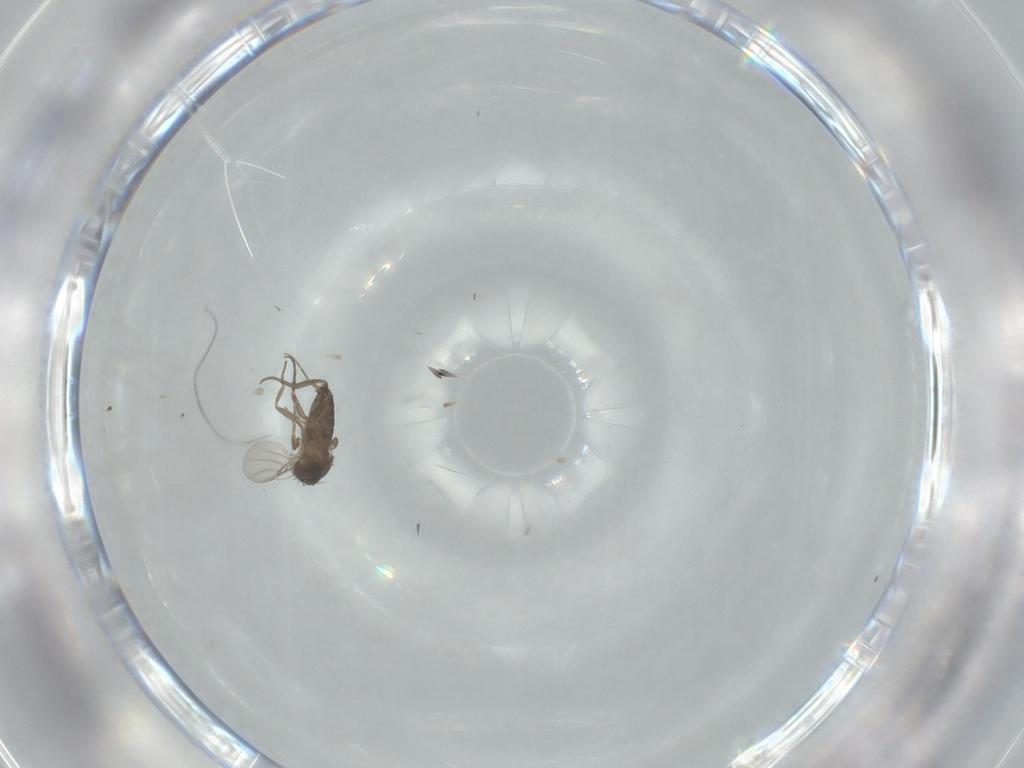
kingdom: Animalia
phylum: Arthropoda
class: Insecta
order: Diptera
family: Phoridae
